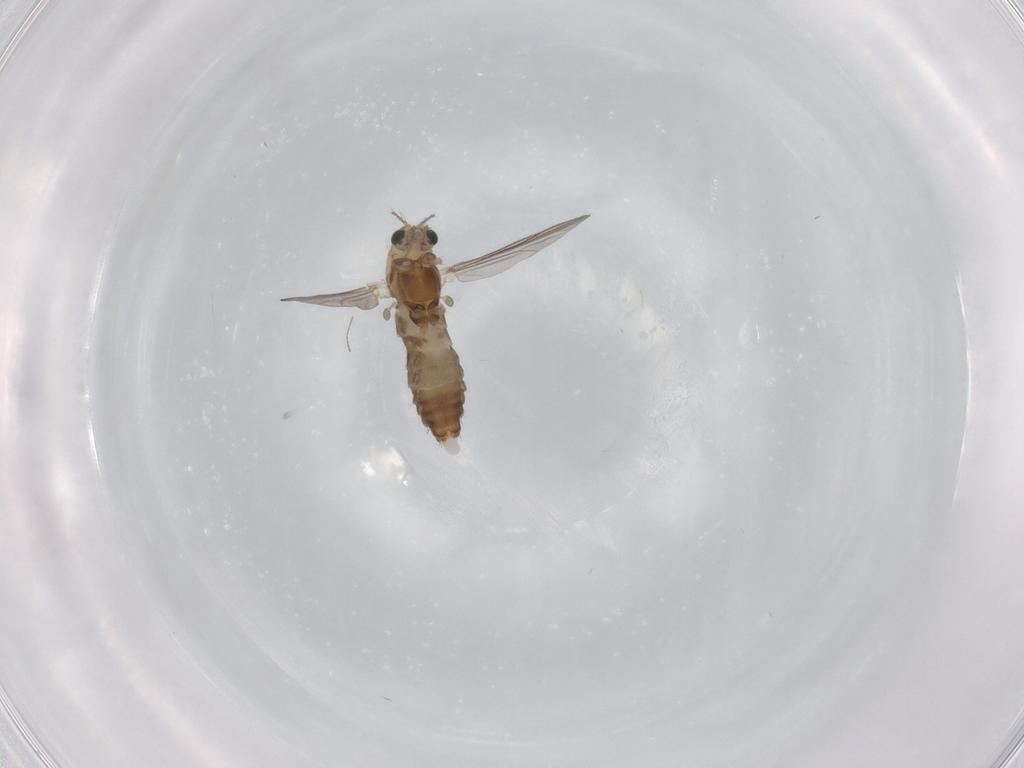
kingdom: Animalia
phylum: Arthropoda
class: Insecta
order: Diptera
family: Chironomidae
